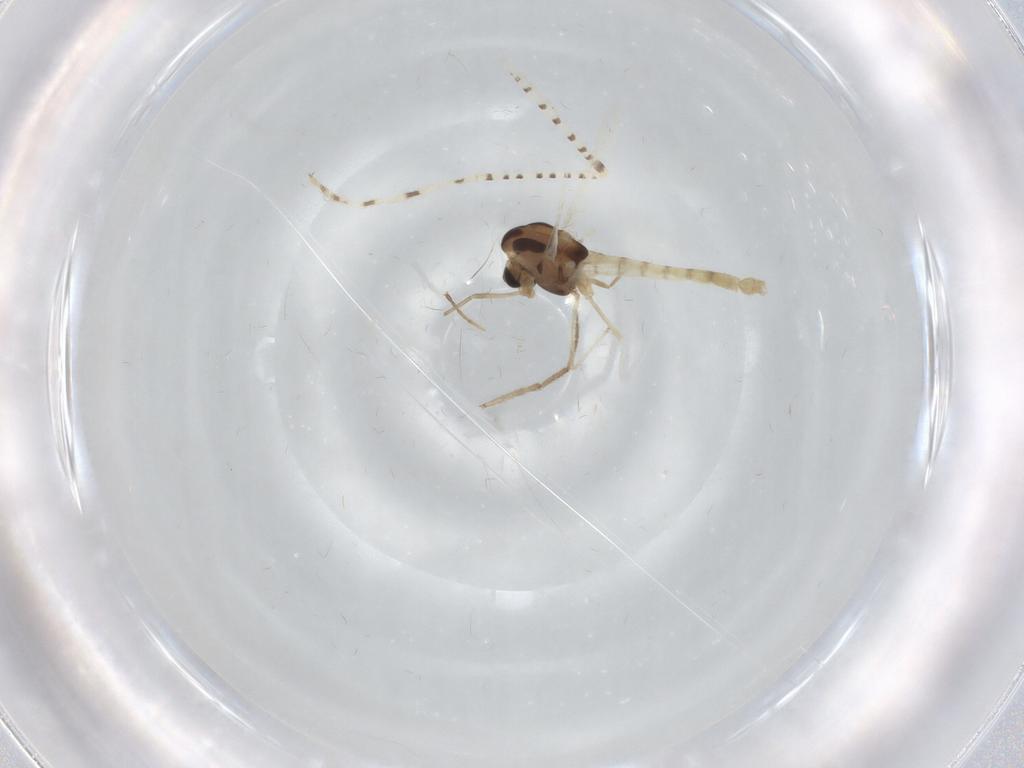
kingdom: Animalia
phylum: Arthropoda
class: Insecta
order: Diptera
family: Chironomidae
